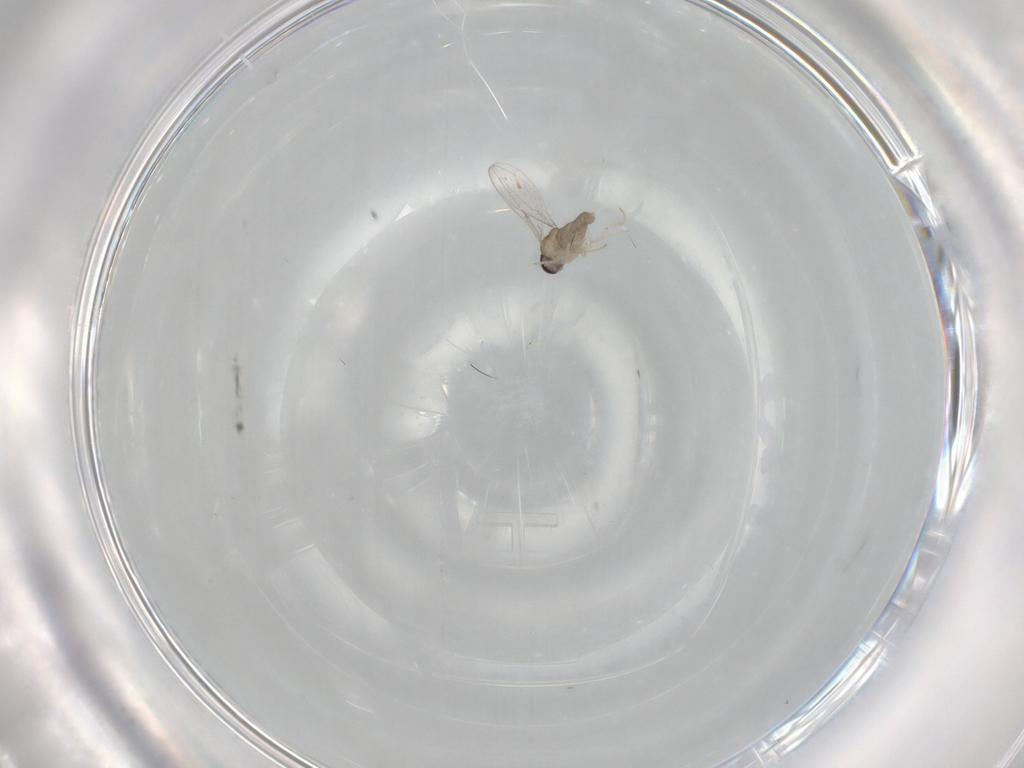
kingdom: Animalia
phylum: Arthropoda
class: Insecta
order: Diptera
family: Cecidomyiidae
